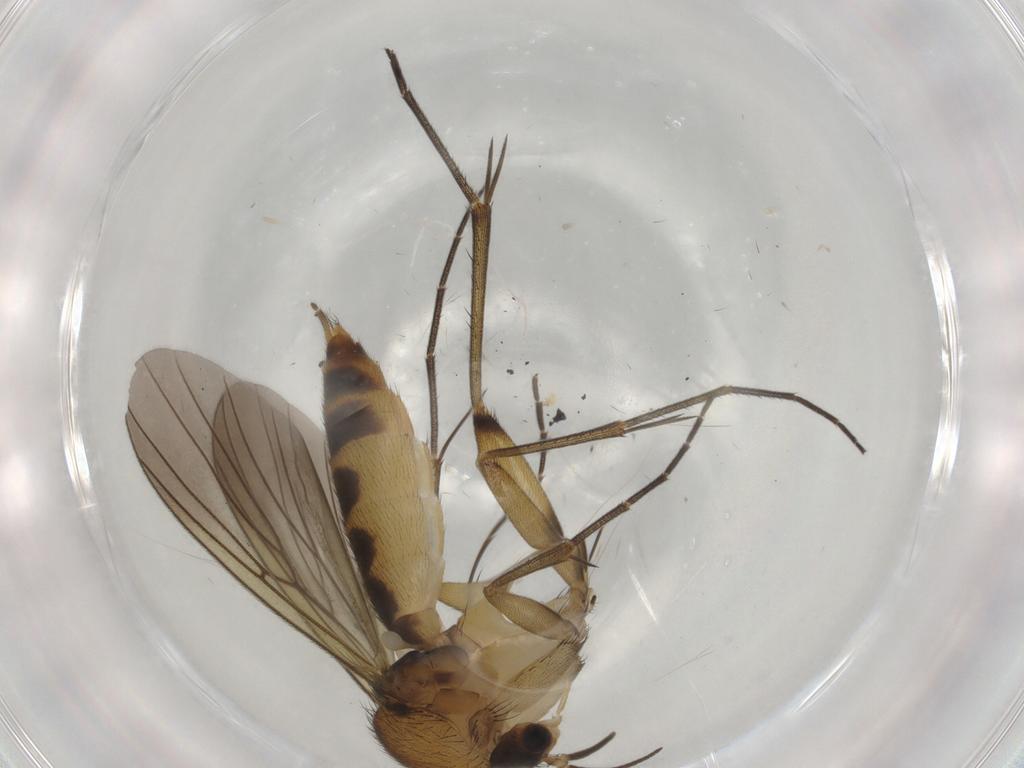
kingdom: Animalia
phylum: Arthropoda
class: Insecta
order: Diptera
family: Mycetophilidae
